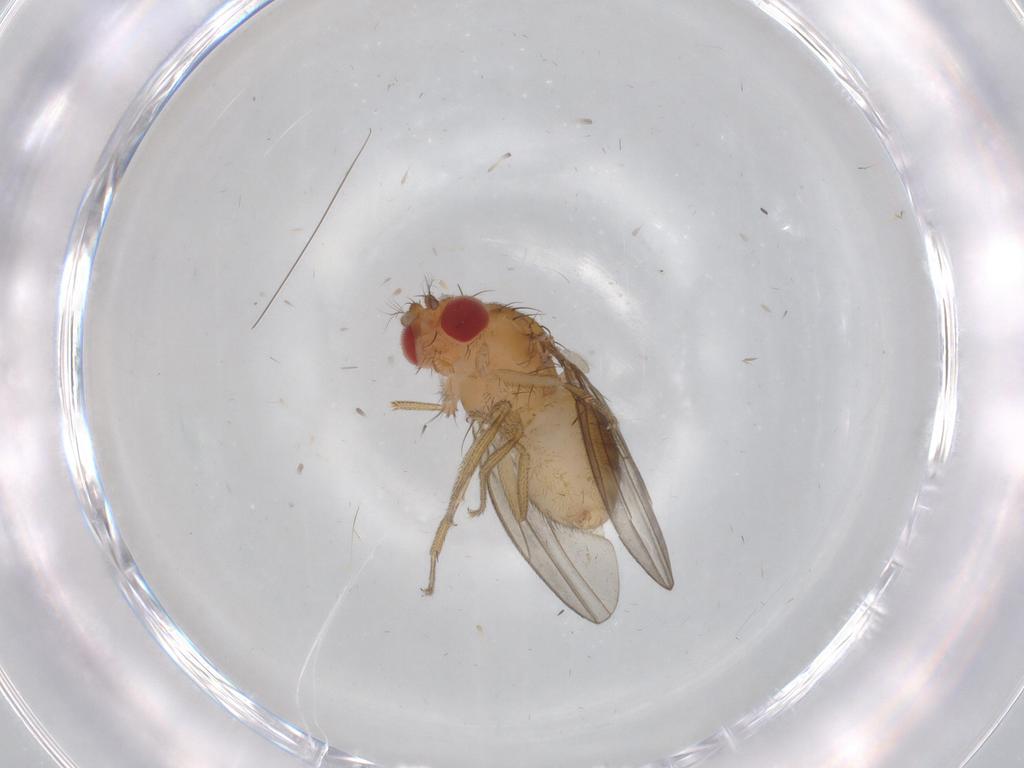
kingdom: Animalia
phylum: Arthropoda
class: Insecta
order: Diptera
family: Drosophilidae
